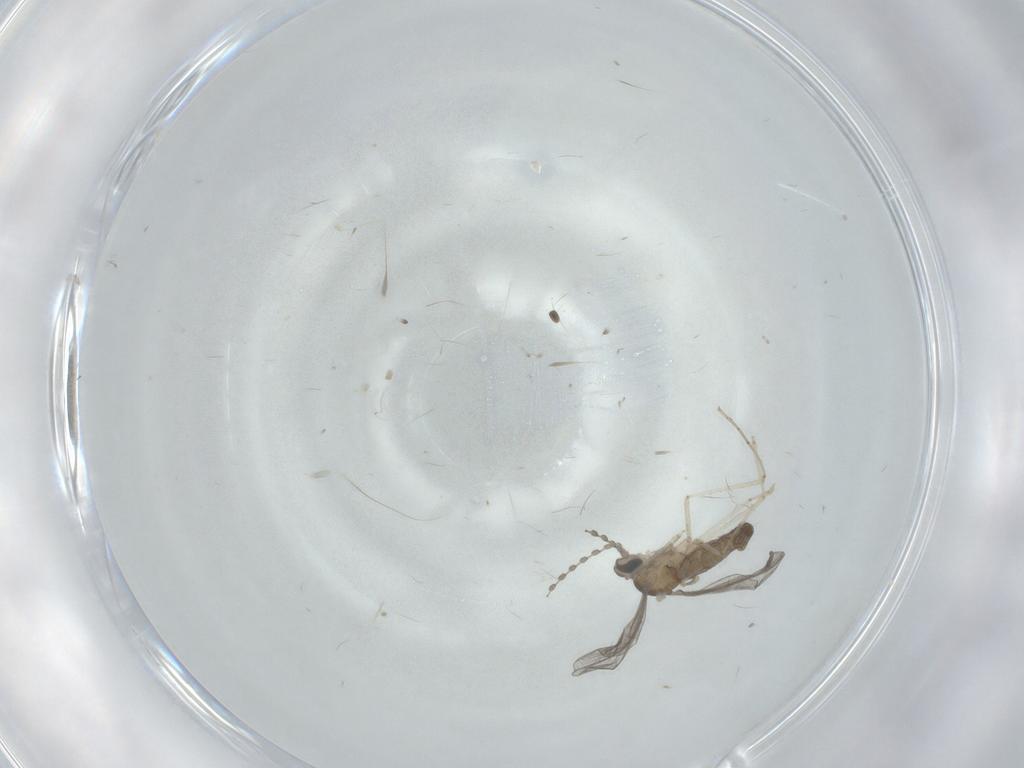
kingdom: Animalia
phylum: Arthropoda
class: Insecta
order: Diptera
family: Cecidomyiidae
